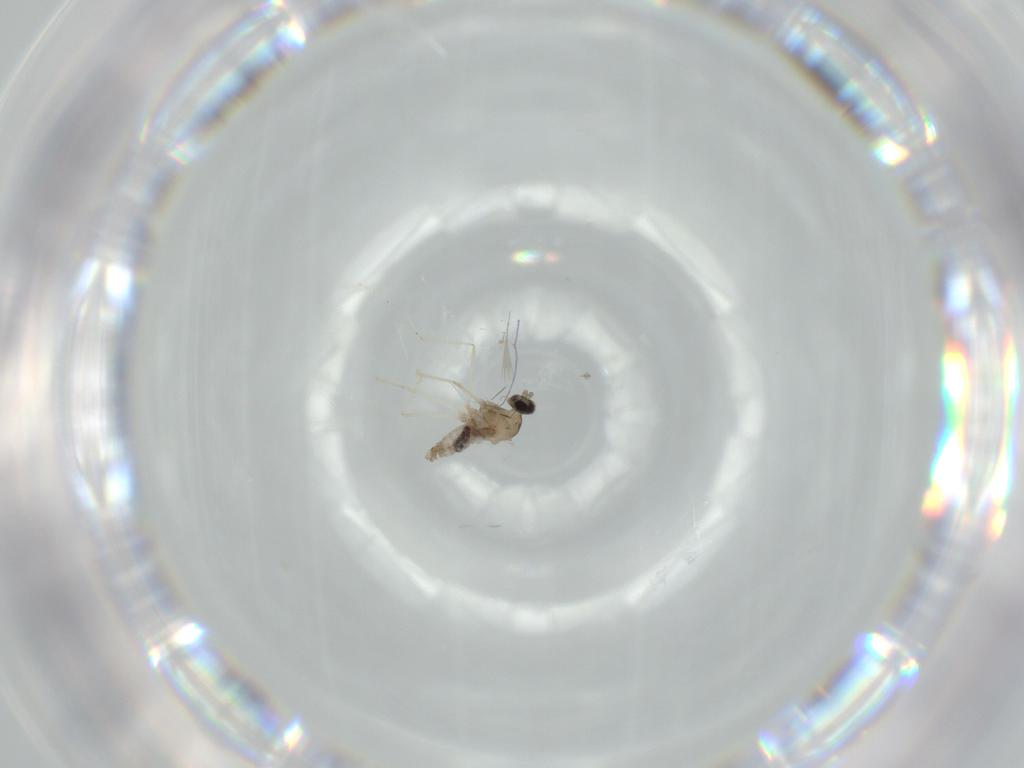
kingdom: Animalia
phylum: Arthropoda
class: Insecta
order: Diptera
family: Cecidomyiidae
